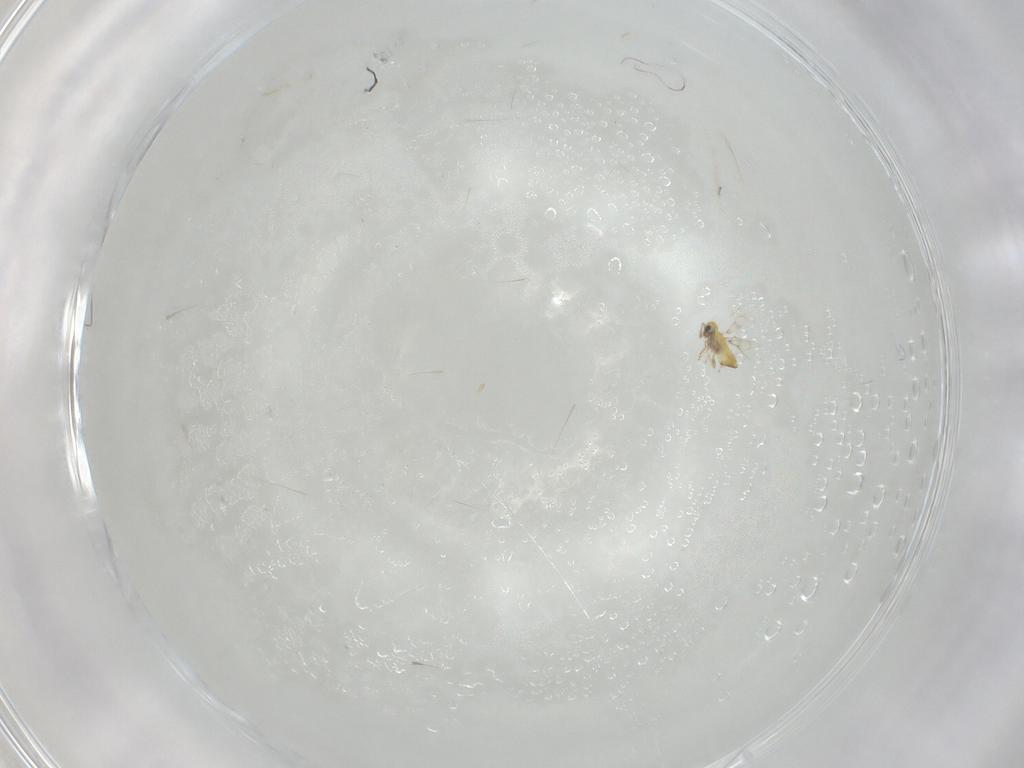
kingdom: Animalia
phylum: Arthropoda
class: Insecta
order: Hymenoptera
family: Trichogrammatidae
